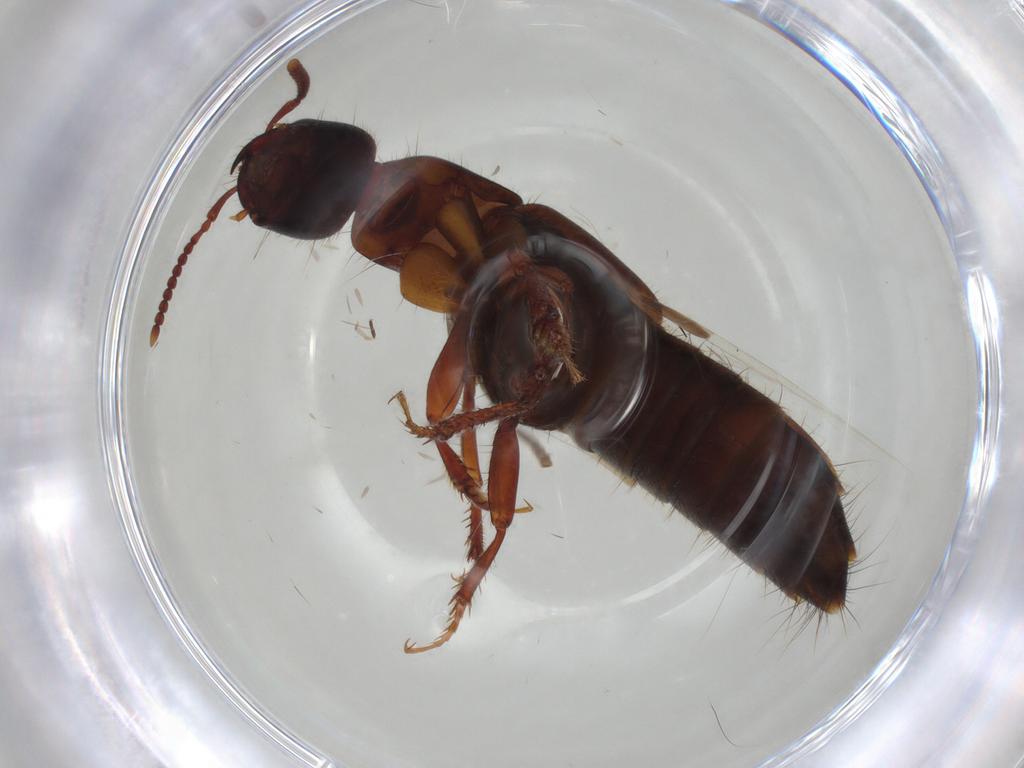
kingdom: Animalia
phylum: Arthropoda
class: Insecta
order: Coleoptera
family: Staphylinidae
